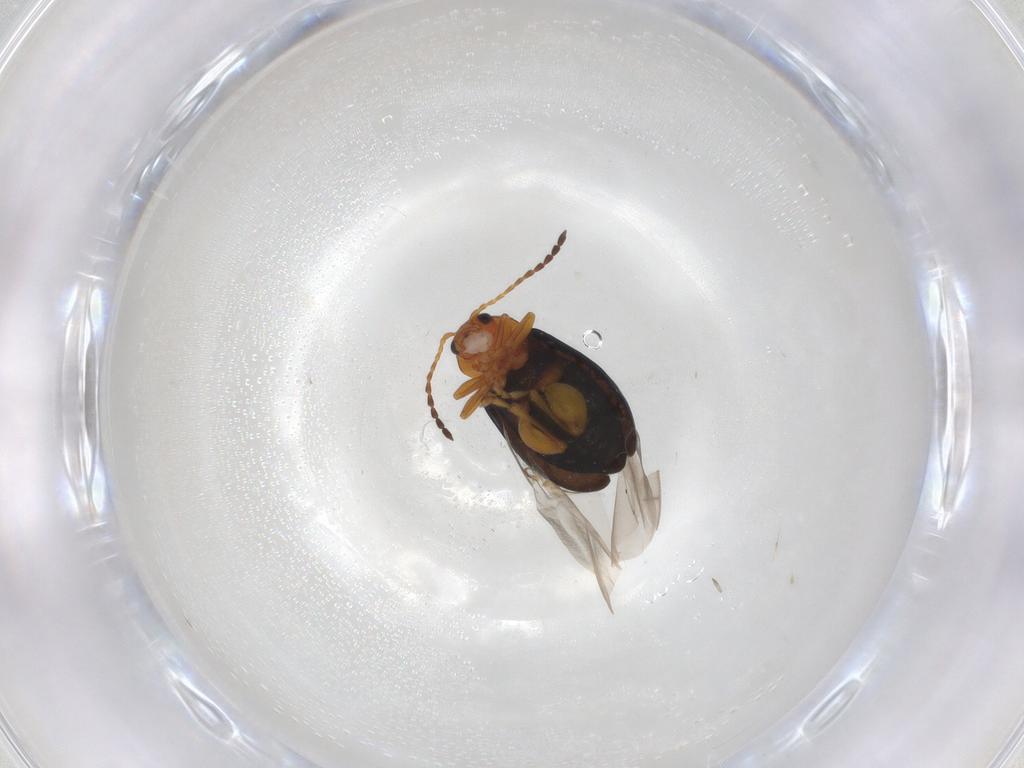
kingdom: Animalia
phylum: Arthropoda
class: Insecta
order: Coleoptera
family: Chrysomelidae
